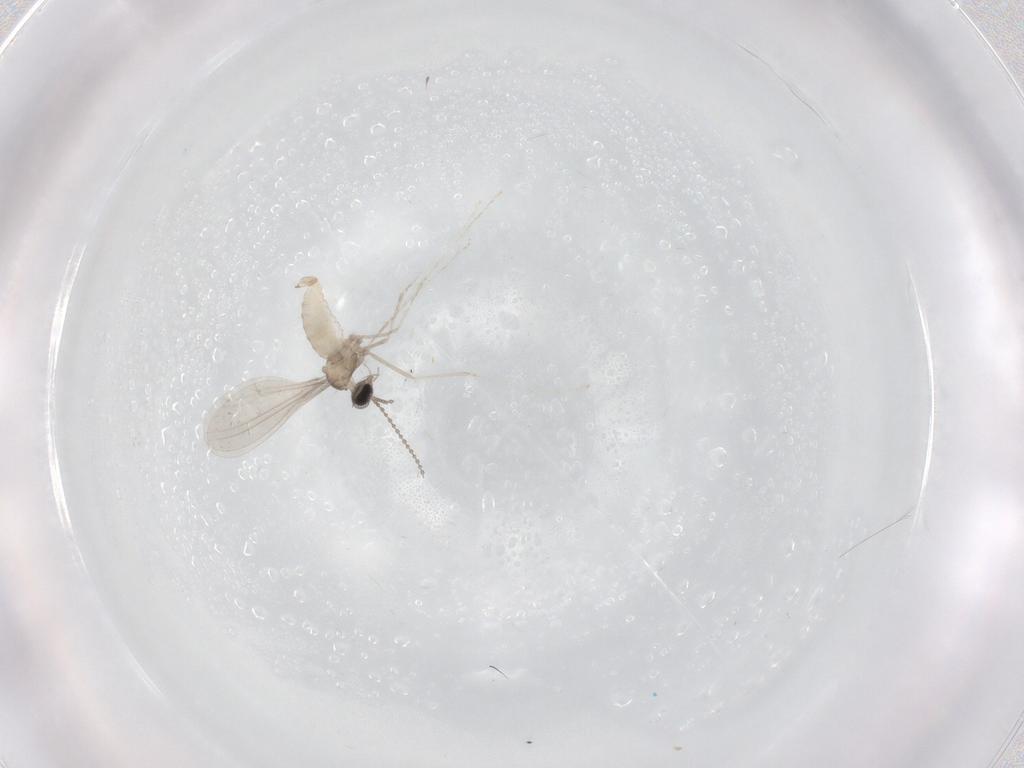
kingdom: Animalia
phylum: Arthropoda
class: Insecta
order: Diptera
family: Cecidomyiidae
